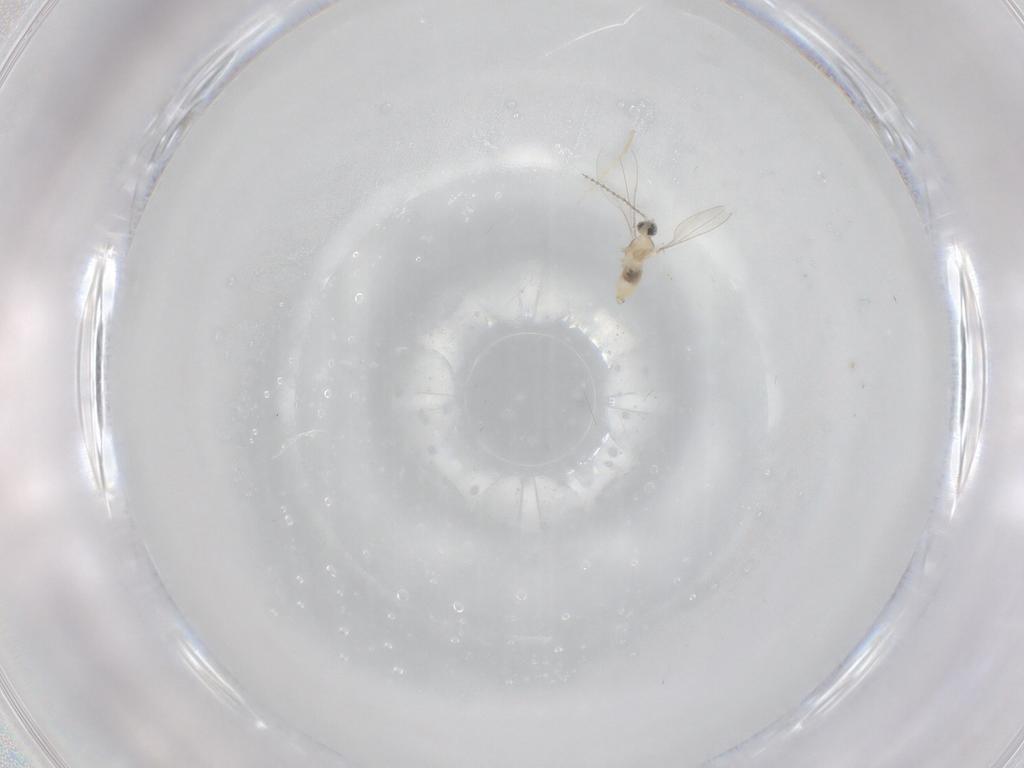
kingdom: Animalia
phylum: Arthropoda
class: Insecta
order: Diptera
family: Cecidomyiidae
